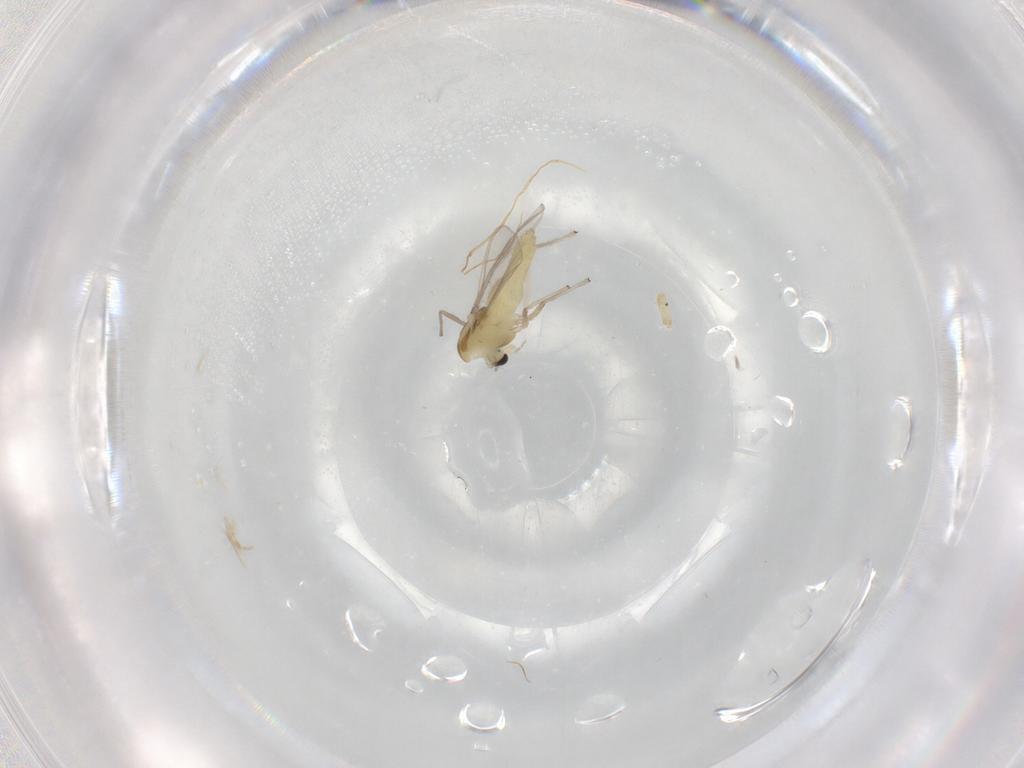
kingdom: Animalia
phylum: Arthropoda
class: Insecta
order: Diptera
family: Chironomidae
